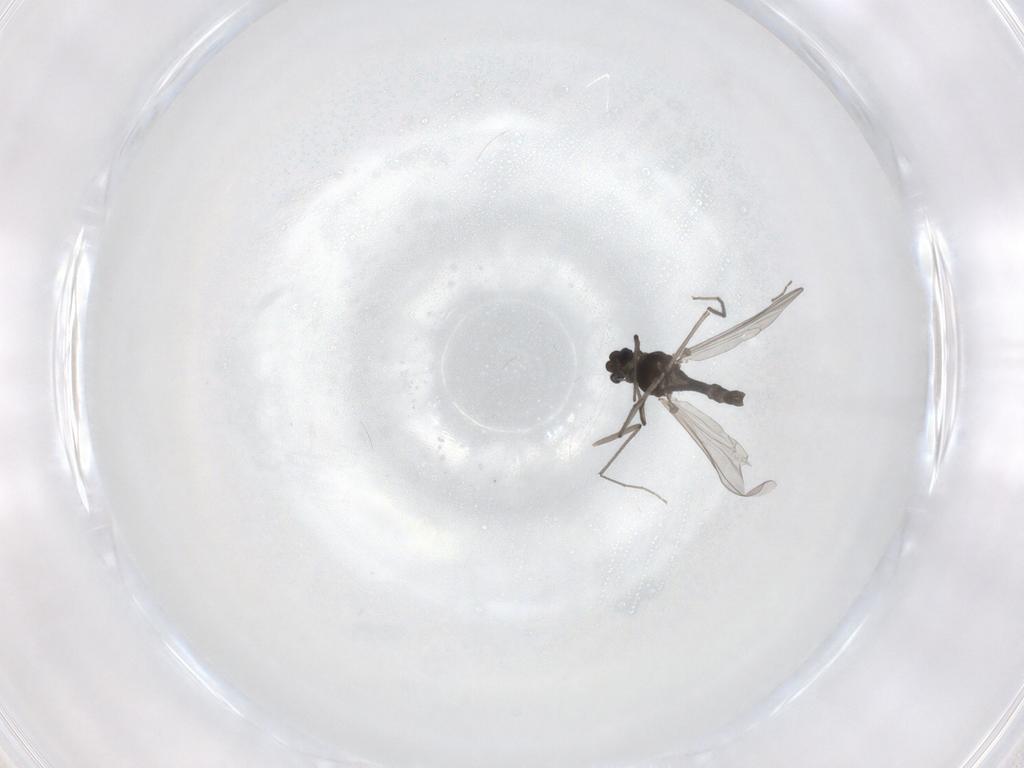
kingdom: Animalia
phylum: Arthropoda
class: Insecta
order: Diptera
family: Chironomidae
